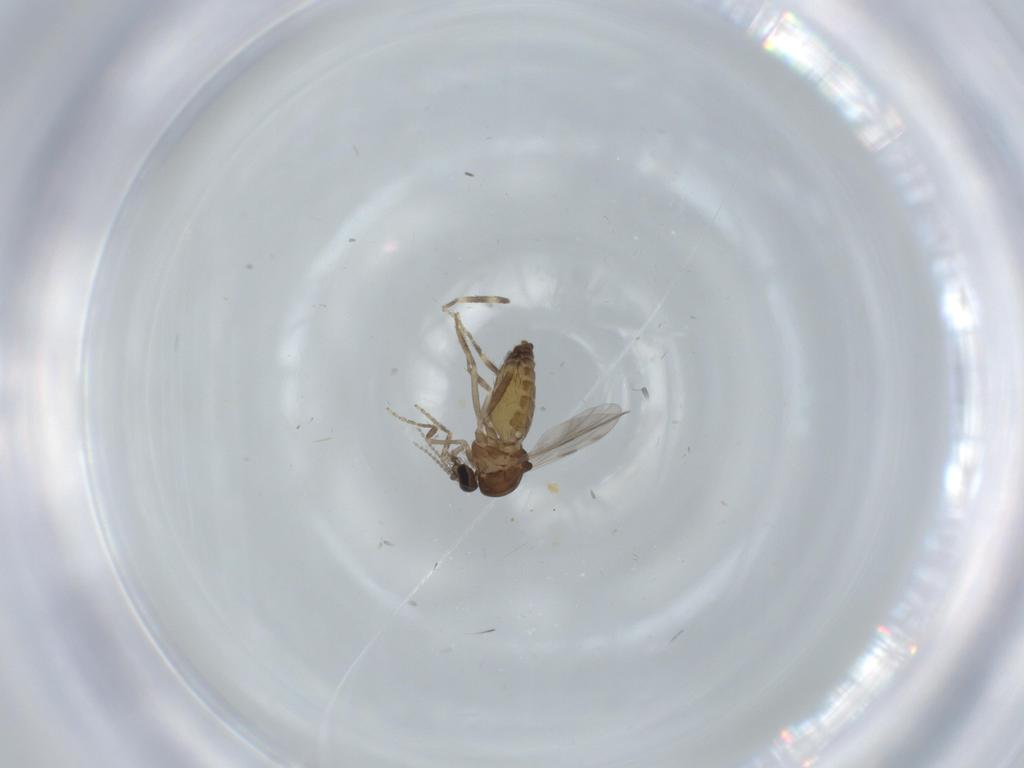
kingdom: Animalia
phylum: Arthropoda
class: Insecta
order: Diptera
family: Ceratopogonidae
